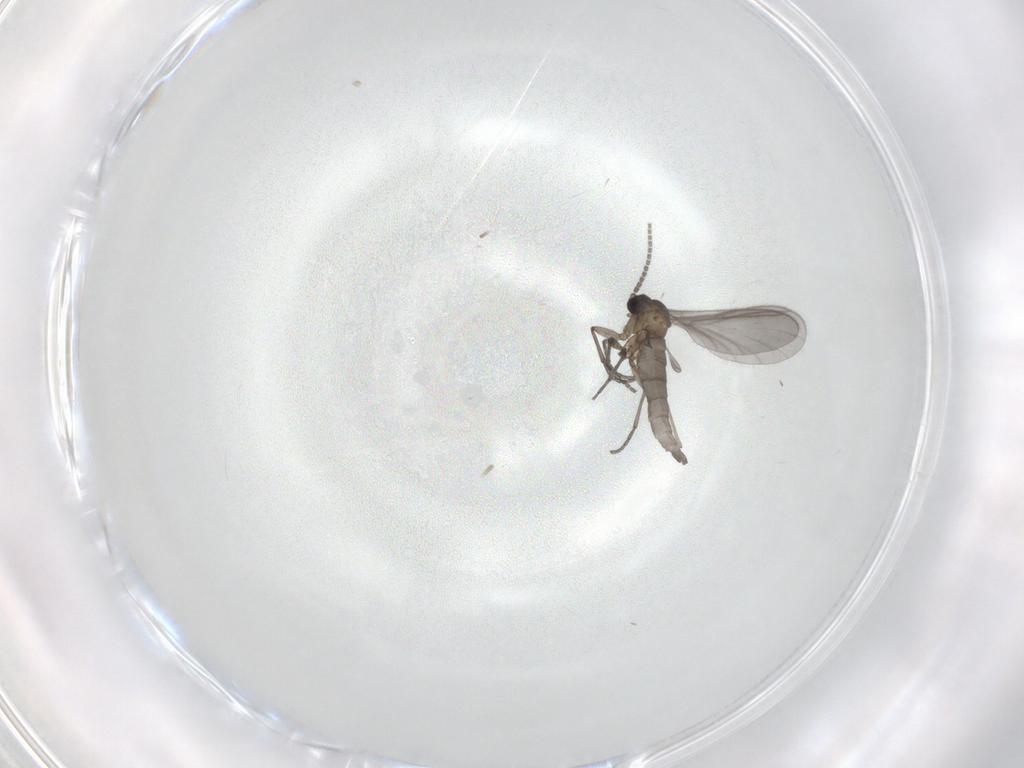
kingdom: Animalia
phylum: Arthropoda
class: Insecta
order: Diptera
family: Sciaridae
